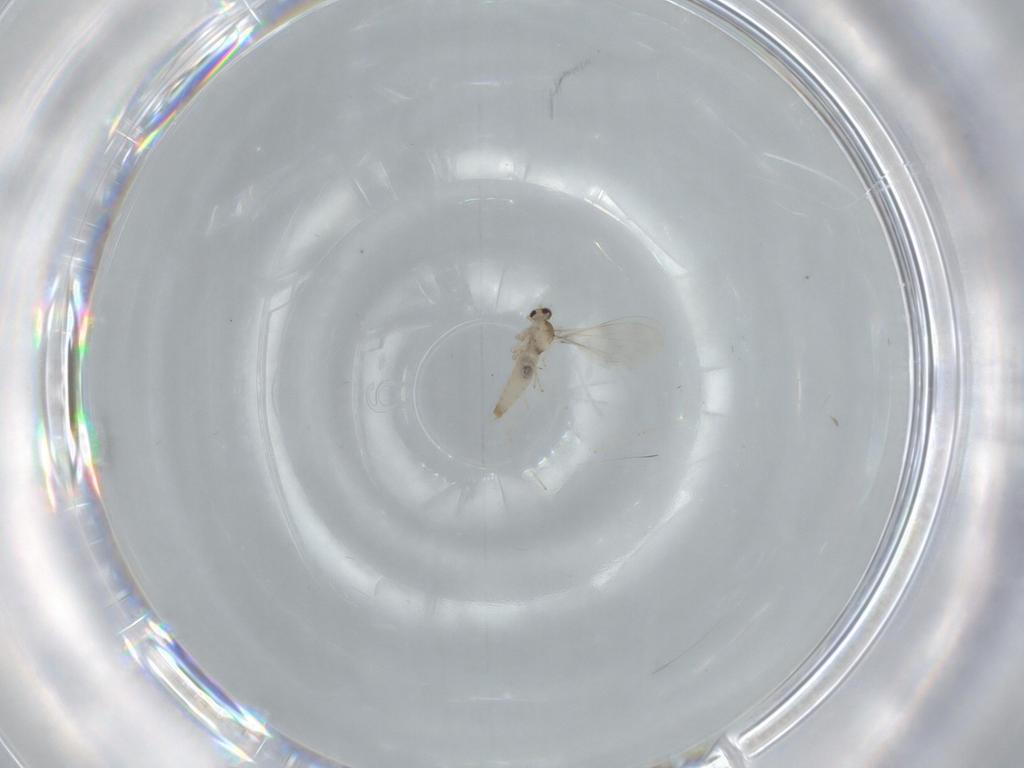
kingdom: Animalia
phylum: Arthropoda
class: Insecta
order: Diptera
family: Cecidomyiidae
